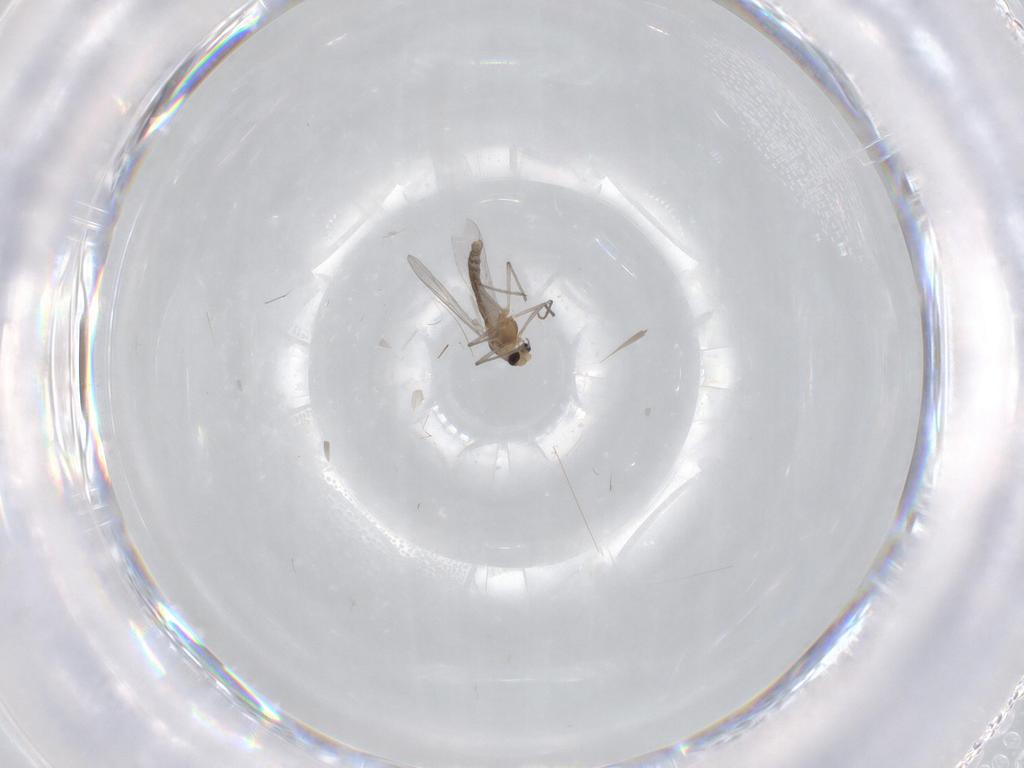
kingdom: Animalia
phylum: Arthropoda
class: Insecta
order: Diptera
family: Chironomidae
